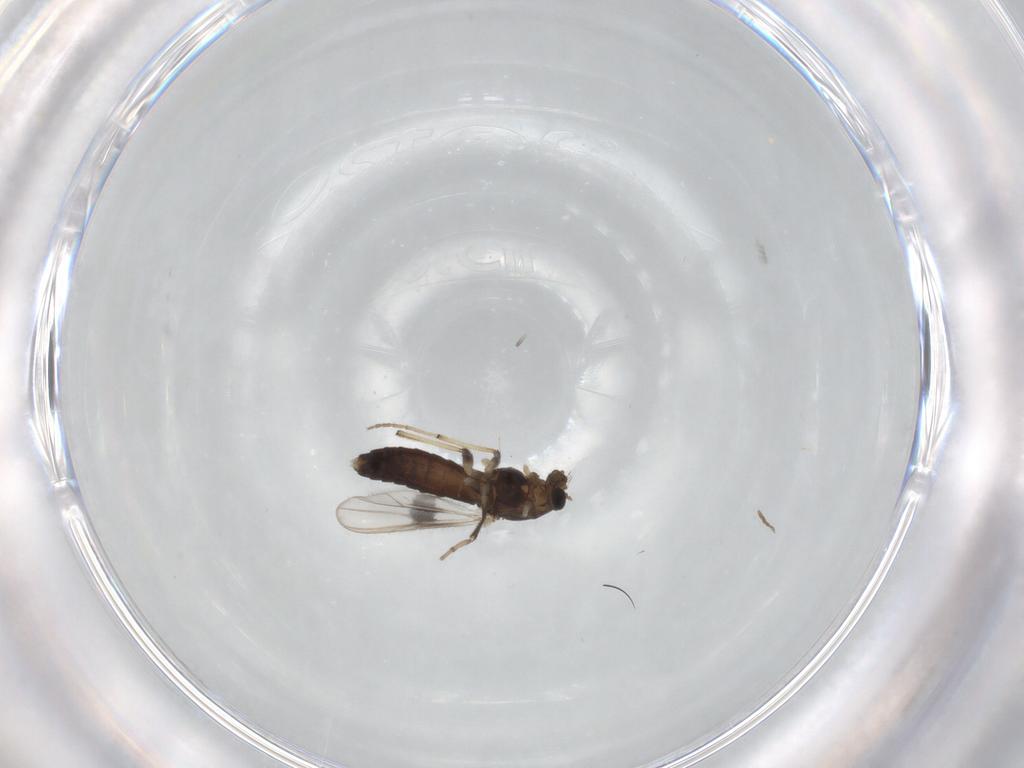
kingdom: Animalia
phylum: Arthropoda
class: Insecta
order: Diptera
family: Chironomidae
